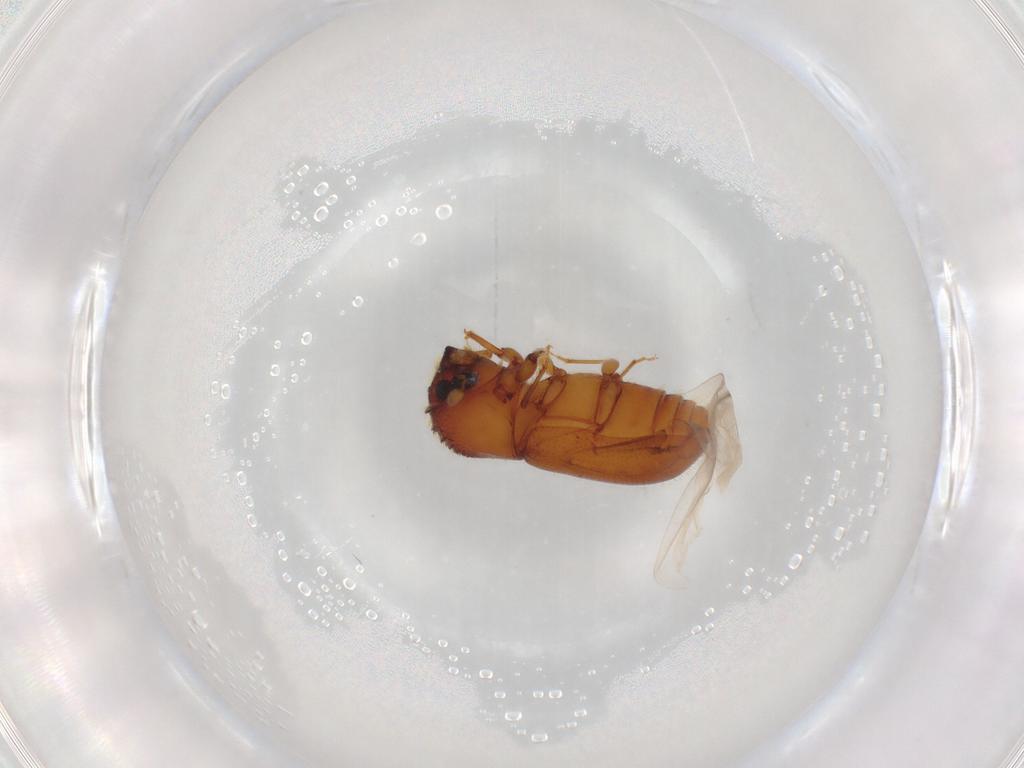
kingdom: Animalia
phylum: Arthropoda
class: Insecta
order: Coleoptera
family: Curculionidae
